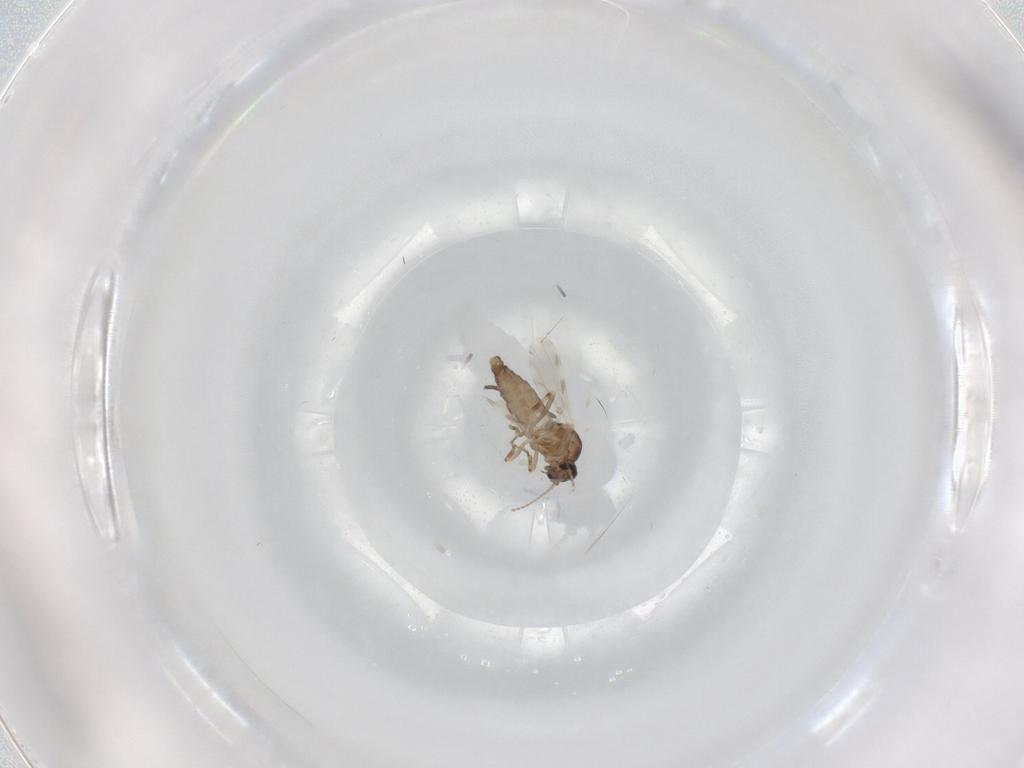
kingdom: Animalia
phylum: Arthropoda
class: Insecta
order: Diptera
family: Ceratopogonidae
